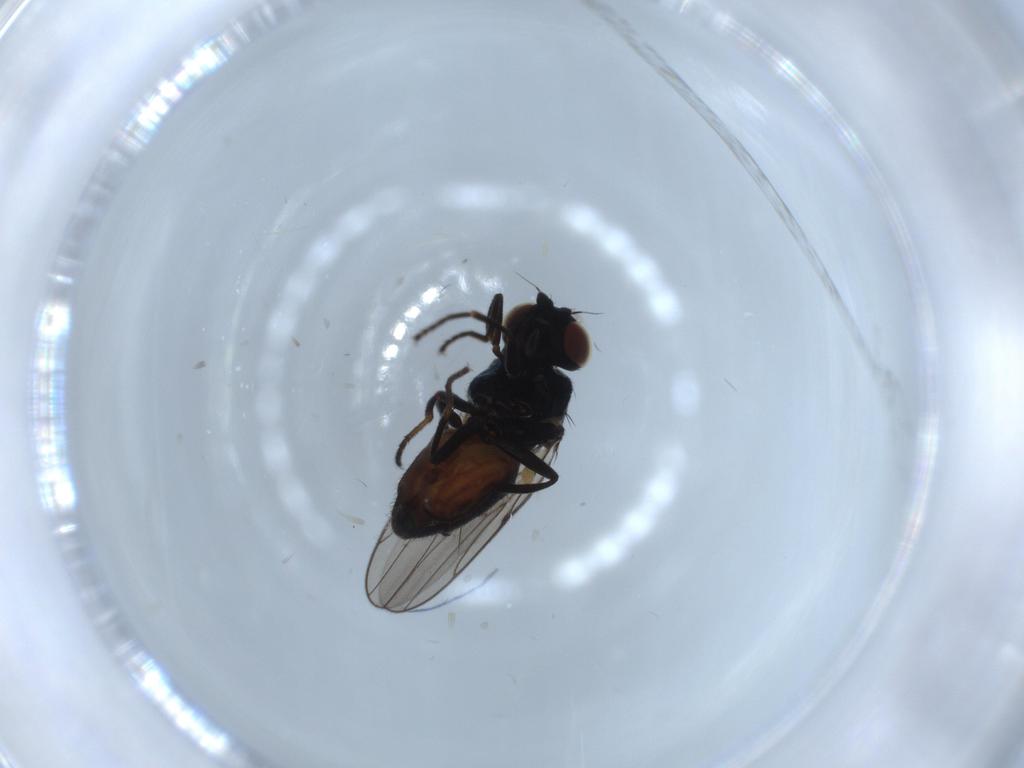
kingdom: Animalia
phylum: Arthropoda
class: Insecta
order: Diptera
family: Chloropidae
